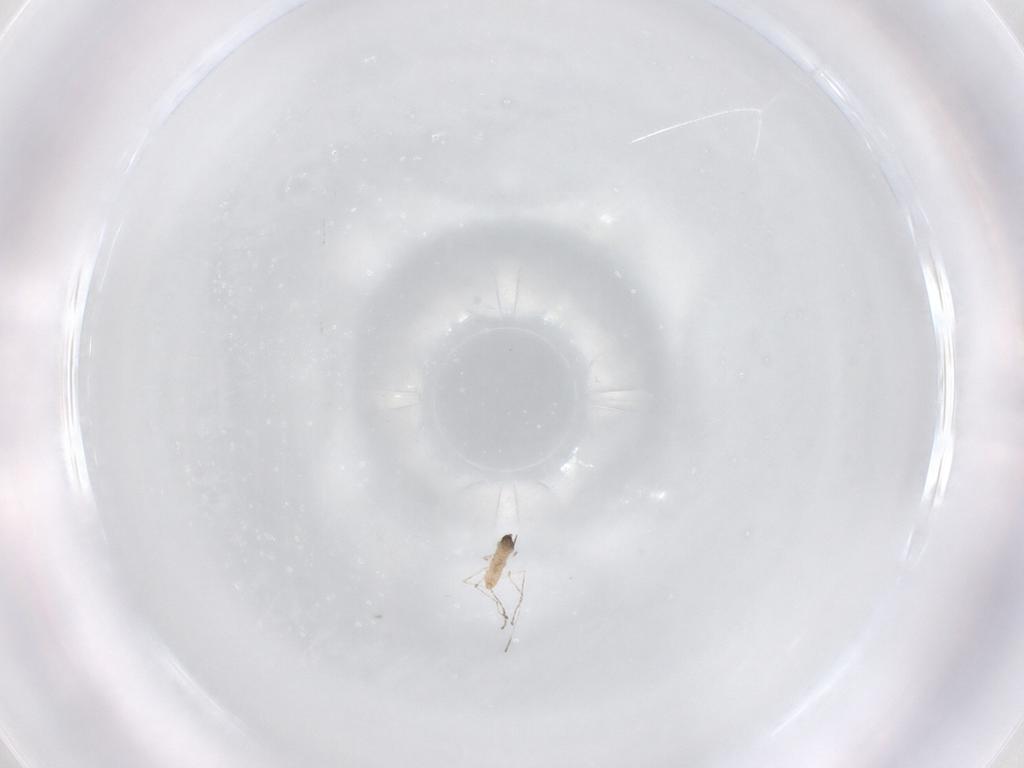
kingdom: Animalia
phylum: Arthropoda
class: Insecta
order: Diptera
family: Cecidomyiidae
